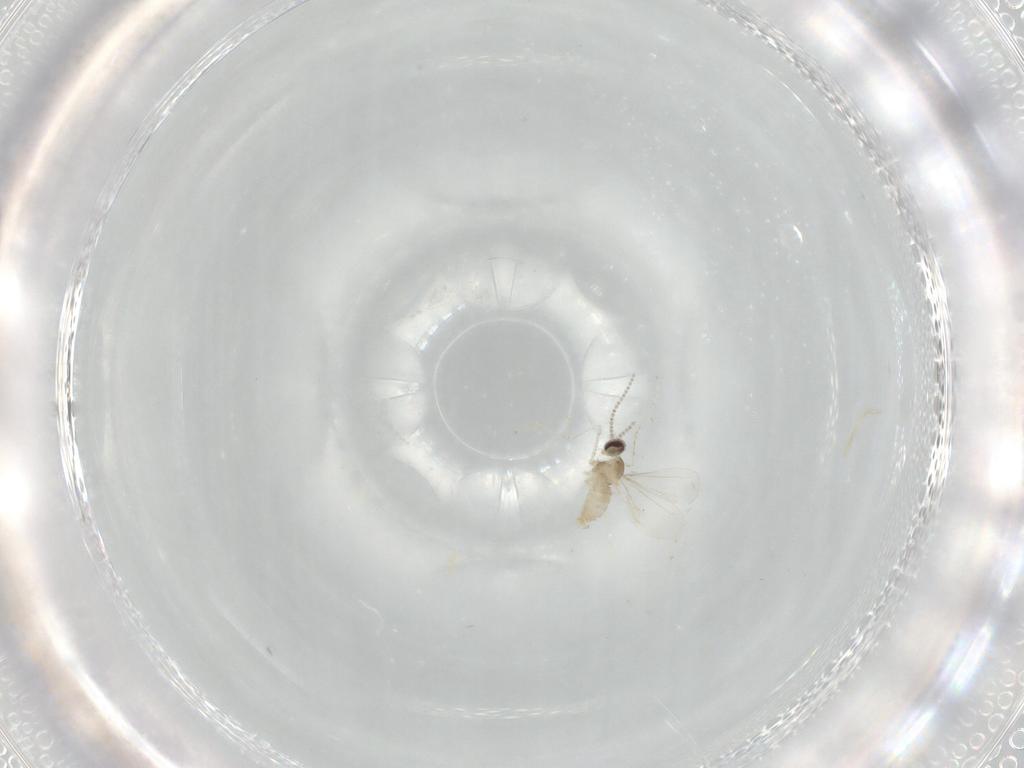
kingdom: Animalia
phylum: Arthropoda
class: Insecta
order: Diptera
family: Cecidomyiidae
